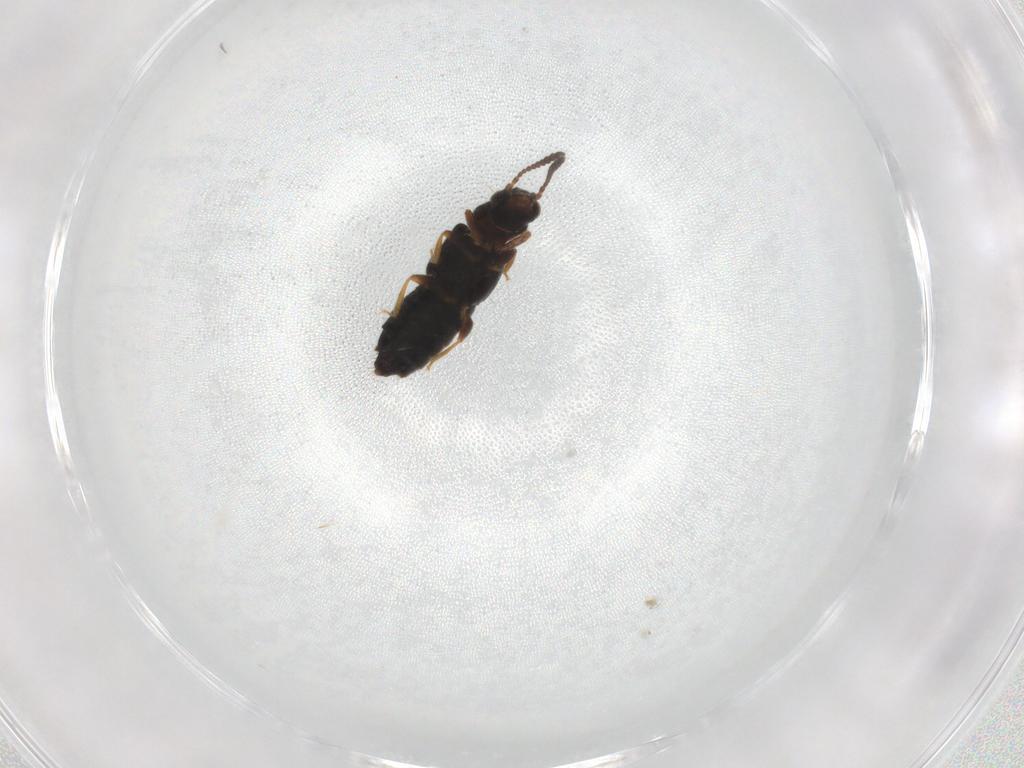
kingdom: Animalia
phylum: Arthropoda
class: Insecta
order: Coleoptera
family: Staphylinidae
